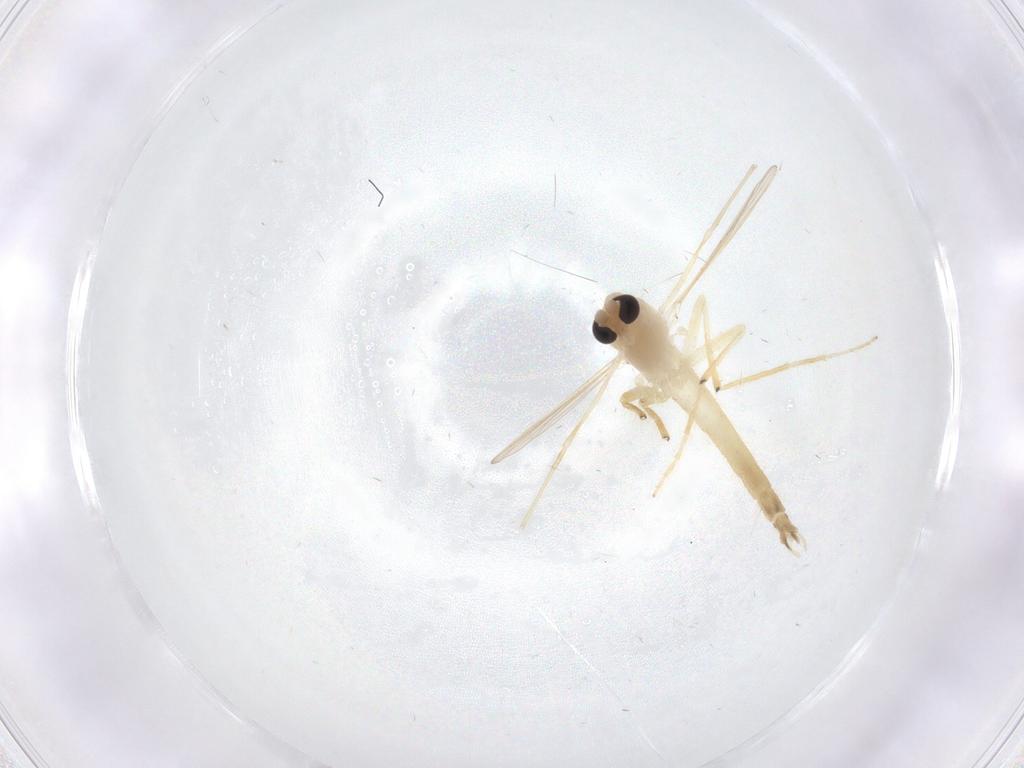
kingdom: Animalia
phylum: Arthropoda
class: Insecta
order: Diptera
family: Chironomidae
